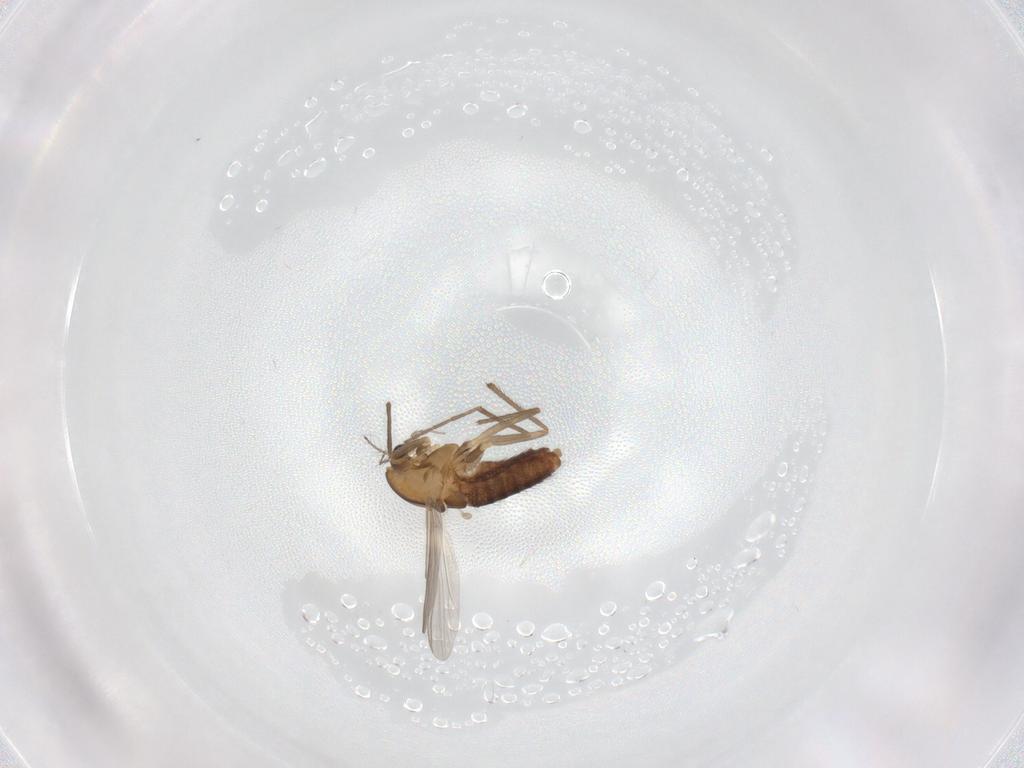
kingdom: Animalia
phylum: Arthropoda
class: Insecta
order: Diptera
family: Chironomidae
